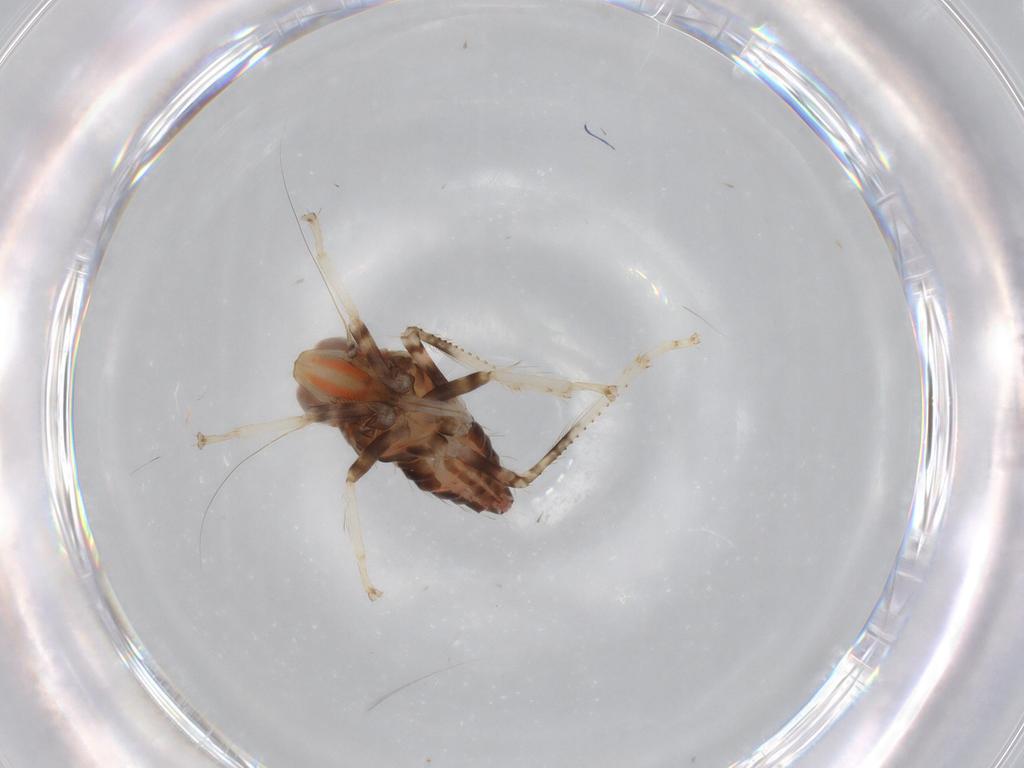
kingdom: Animalia
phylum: Arthropoda
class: Insecta
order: Hemiptera
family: Cicadellidae
